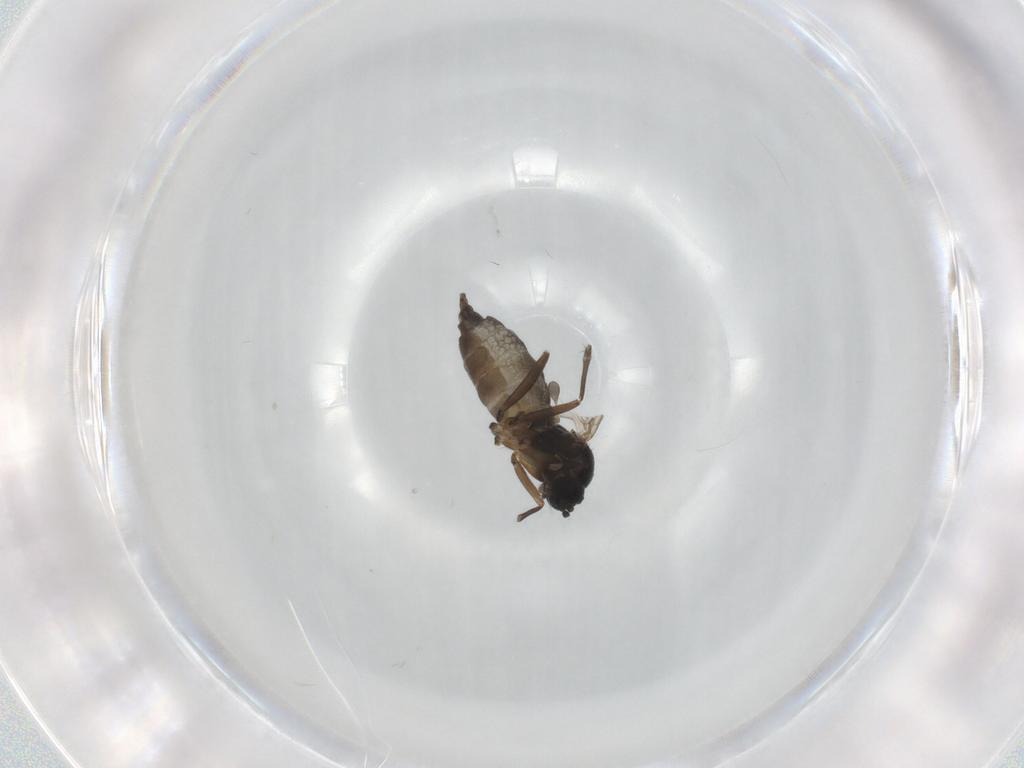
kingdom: Animalia
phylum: Arthropoda
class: Insecta
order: Diptera
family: Sciaridae
